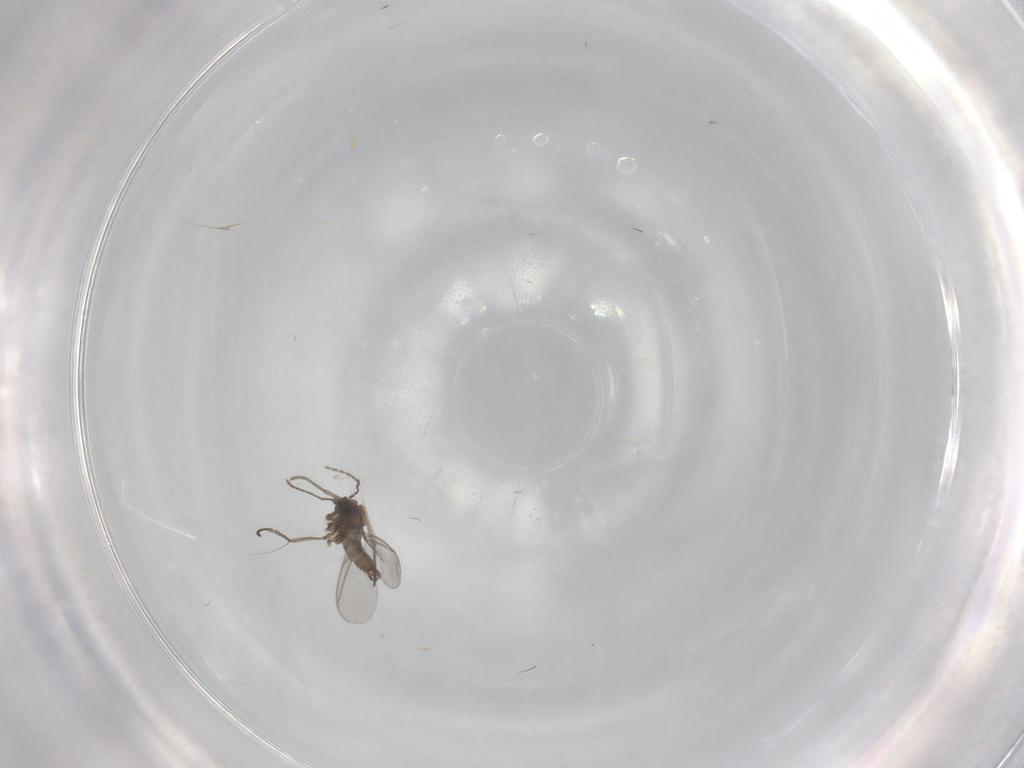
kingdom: Animalia
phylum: Arthropoda
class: Insecta
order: Diptera
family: Sciaridae
